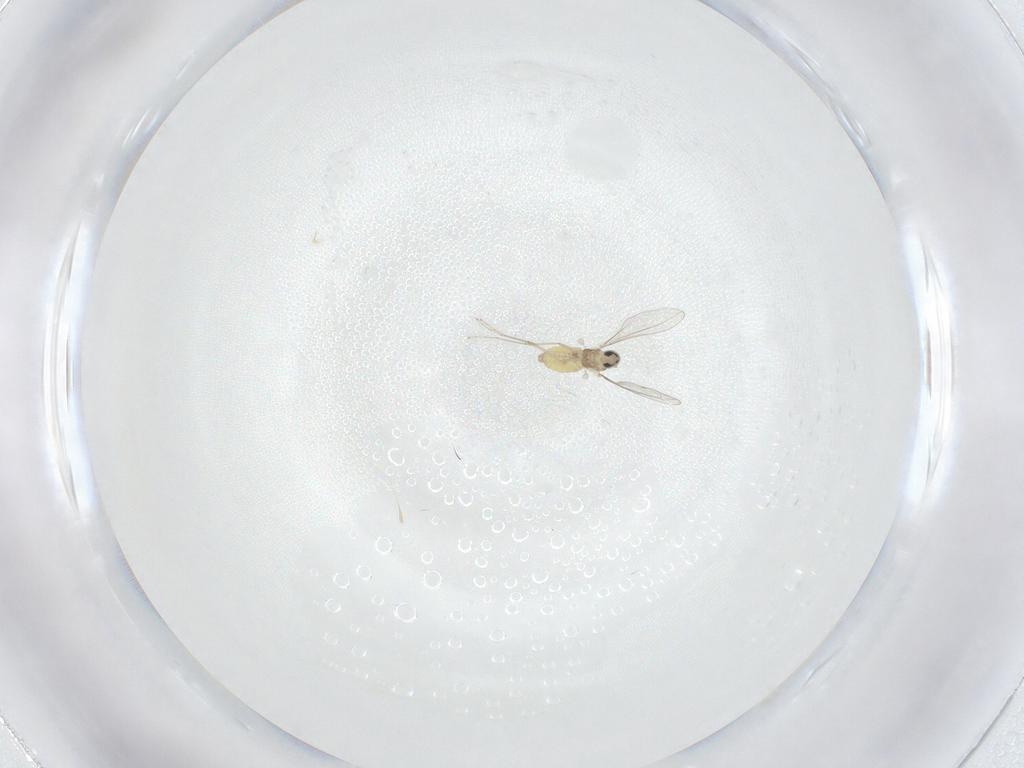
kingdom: Animalia
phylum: Arthropoda
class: Insecta
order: Diptera
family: Cecidomyiidae
